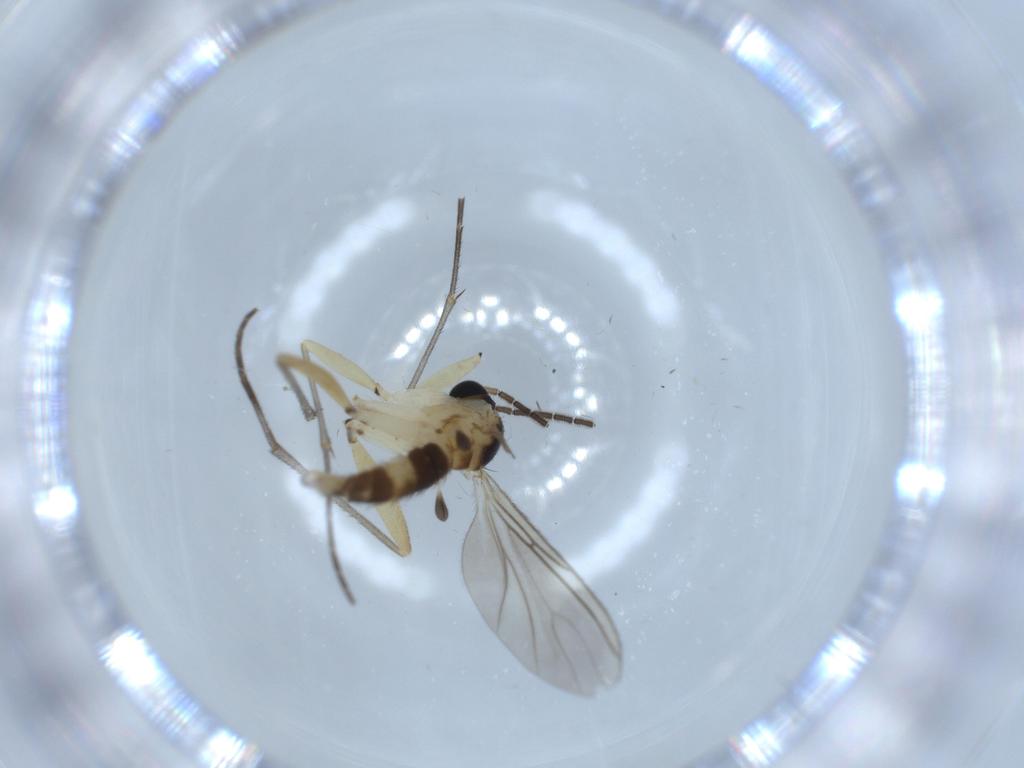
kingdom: Animalia
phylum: Arthropoda
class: Insecta
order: Diptera
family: Sciaridae
